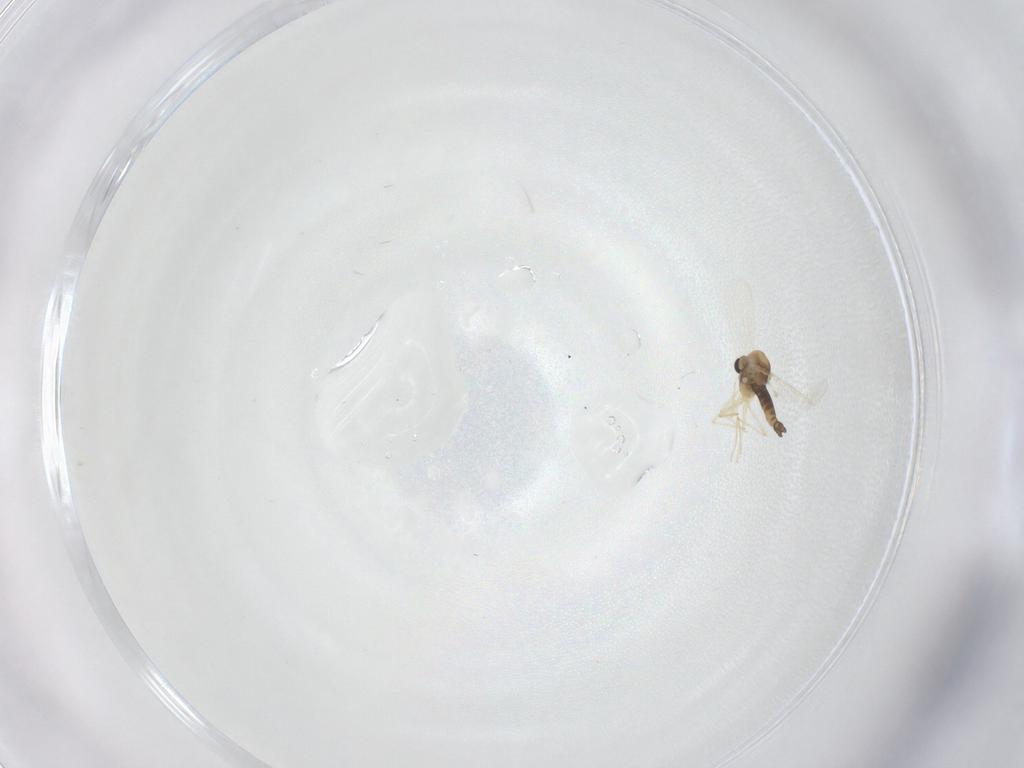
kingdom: Animalia
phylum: Arthropoda
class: Insecta
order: Diptera
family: Chironomidae
